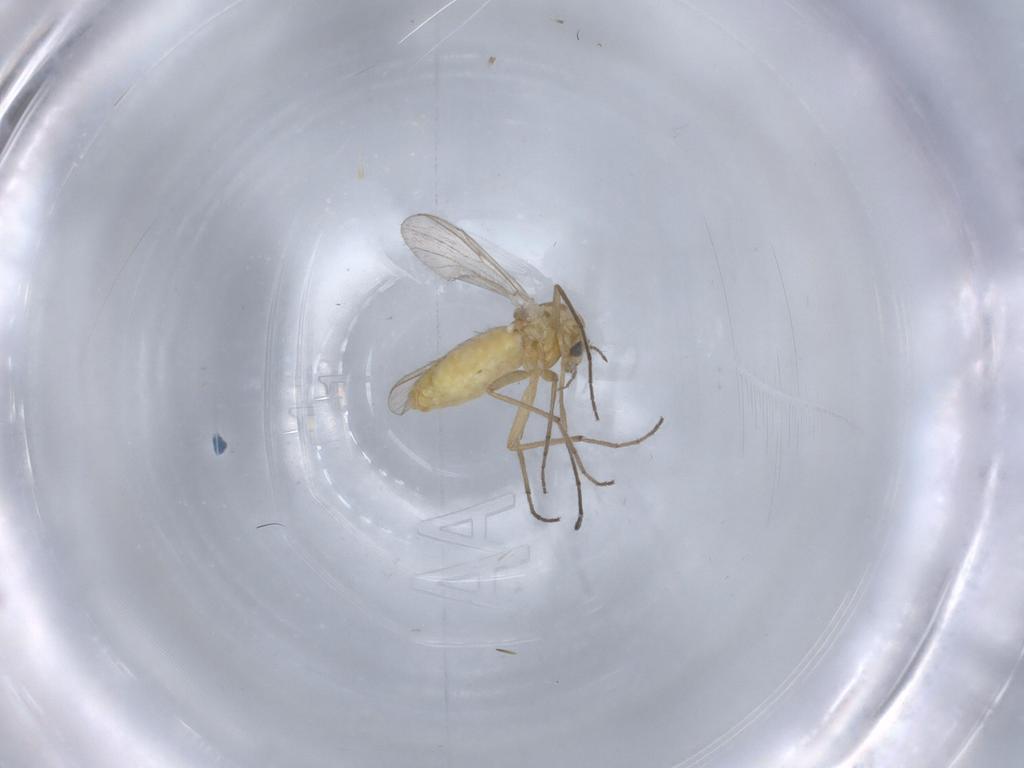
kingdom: Animalia
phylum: Arthropoda
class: Insecta
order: Diptera
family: Chironomidae
